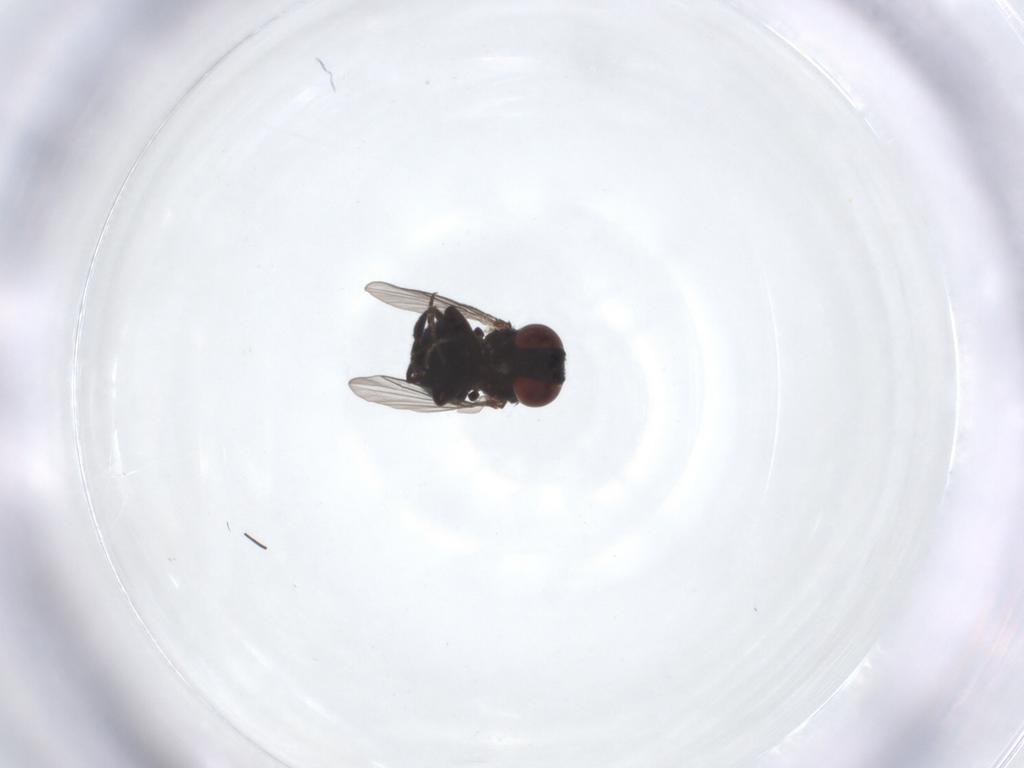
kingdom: Animalia
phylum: Arthropoda
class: Insecta
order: Diptera
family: Cryptochetidae
